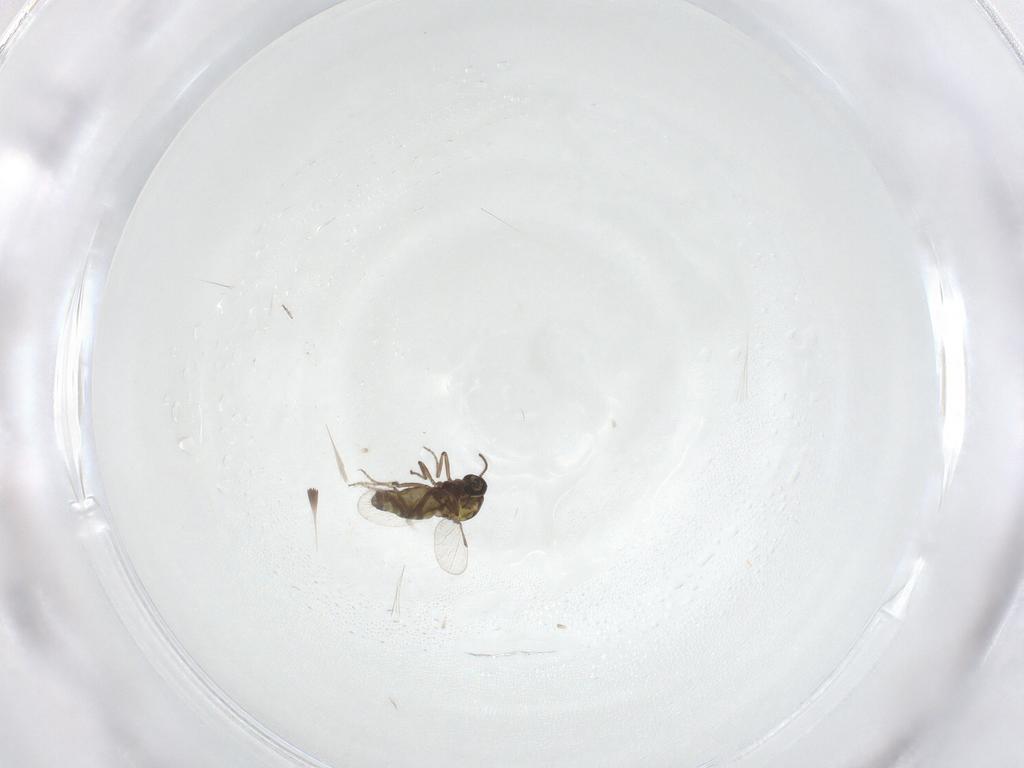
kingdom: Animalia
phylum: Arthropoda
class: Insecta
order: Diptera
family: Ceratopogonidae
